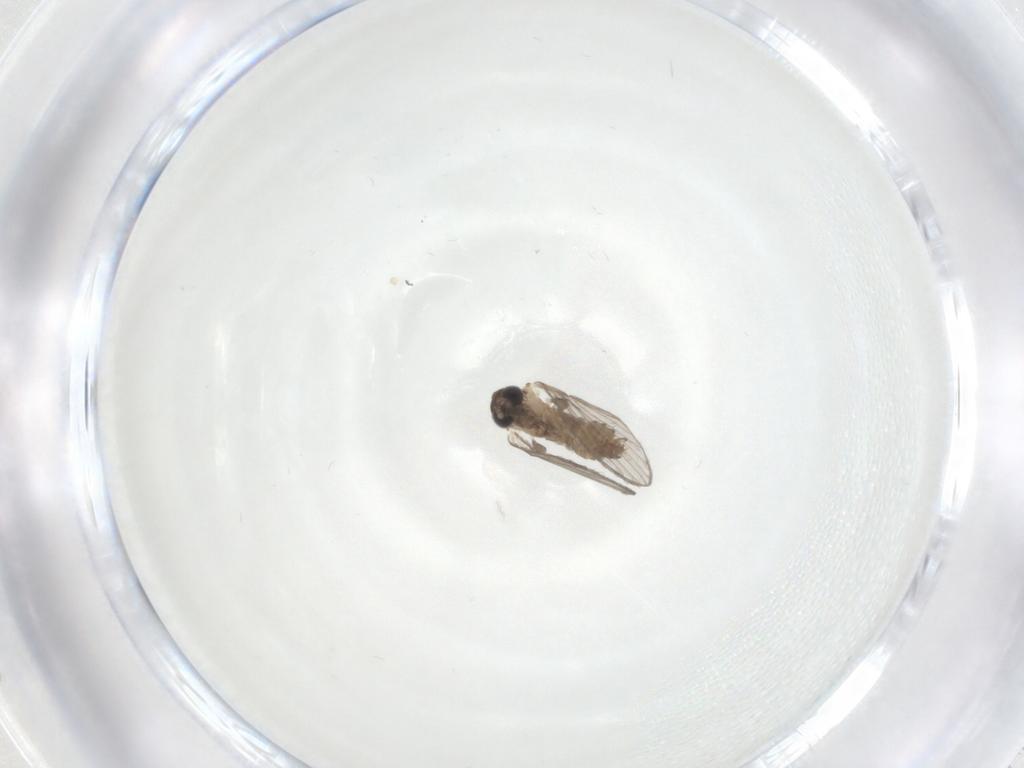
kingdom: Animalia
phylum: Arthropoda
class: Insecta
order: Diptera
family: Psychodidae
